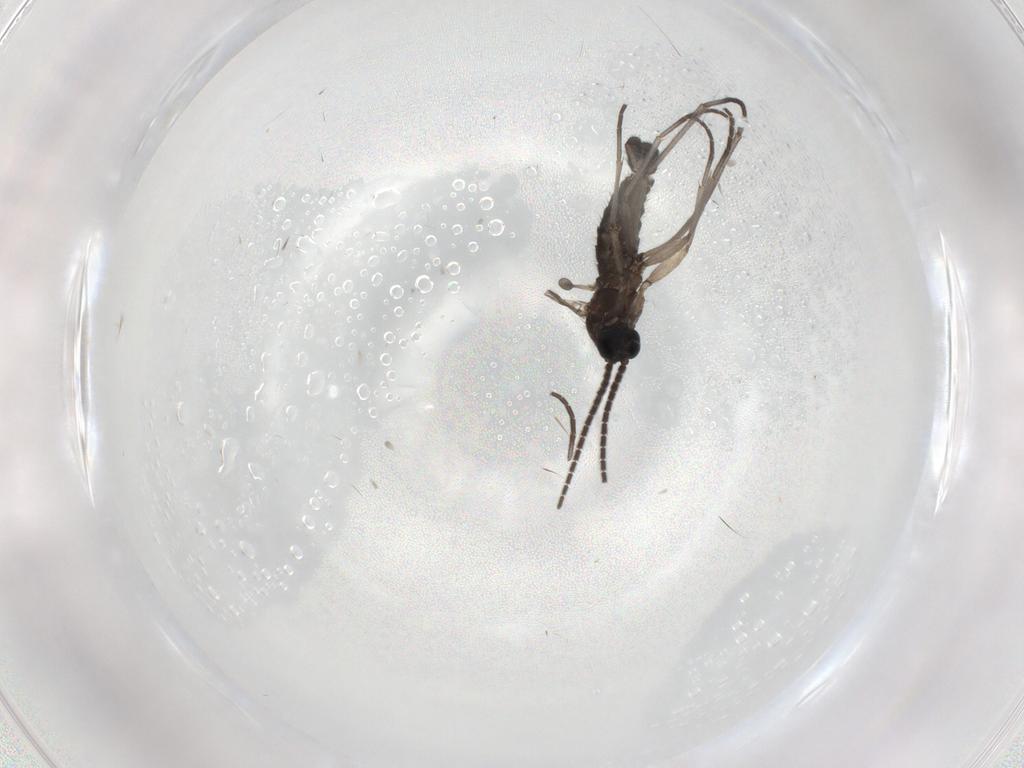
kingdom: Animalia
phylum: Arthropoda
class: Insecta
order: Diptera
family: Sciaridae
